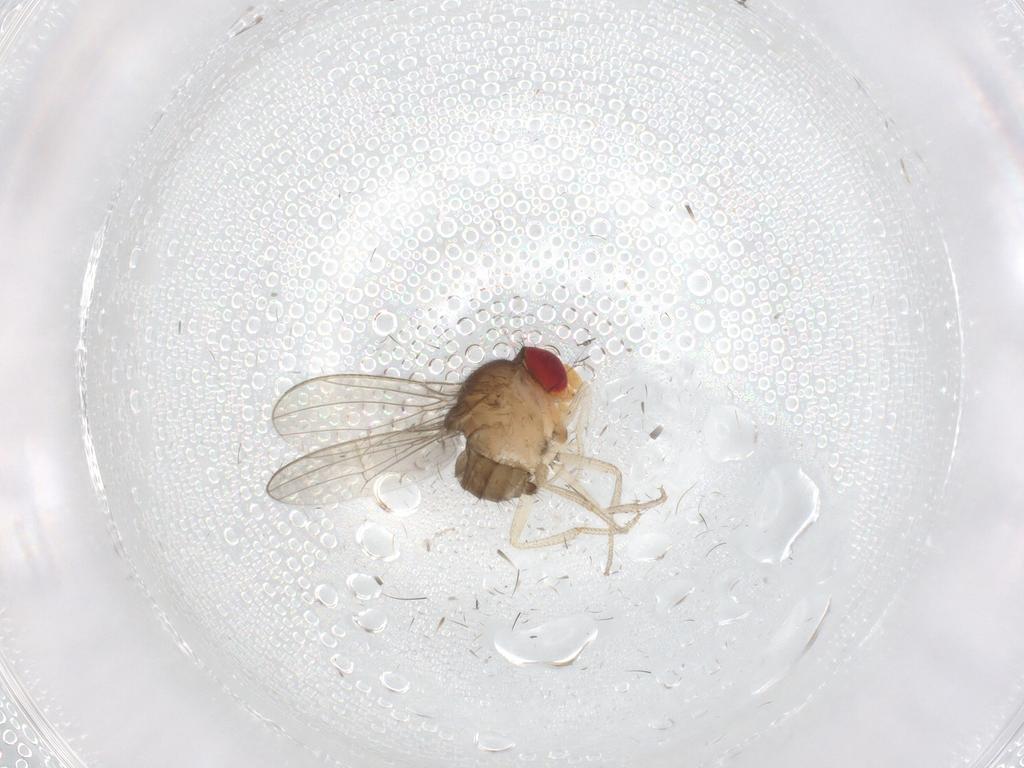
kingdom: Animalia
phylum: Arthropoda
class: Insecta
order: Diptera
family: Drosophilidae
